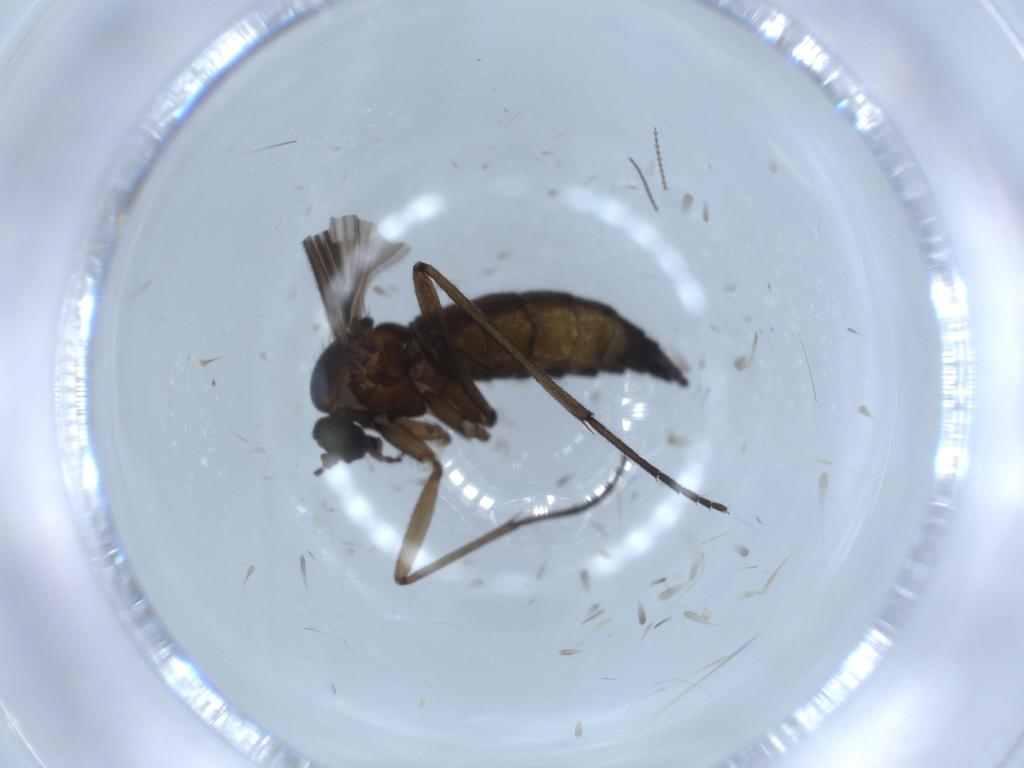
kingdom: Animalia
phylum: Arthropoda
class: Insecta
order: Diptera
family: Sciaridae
